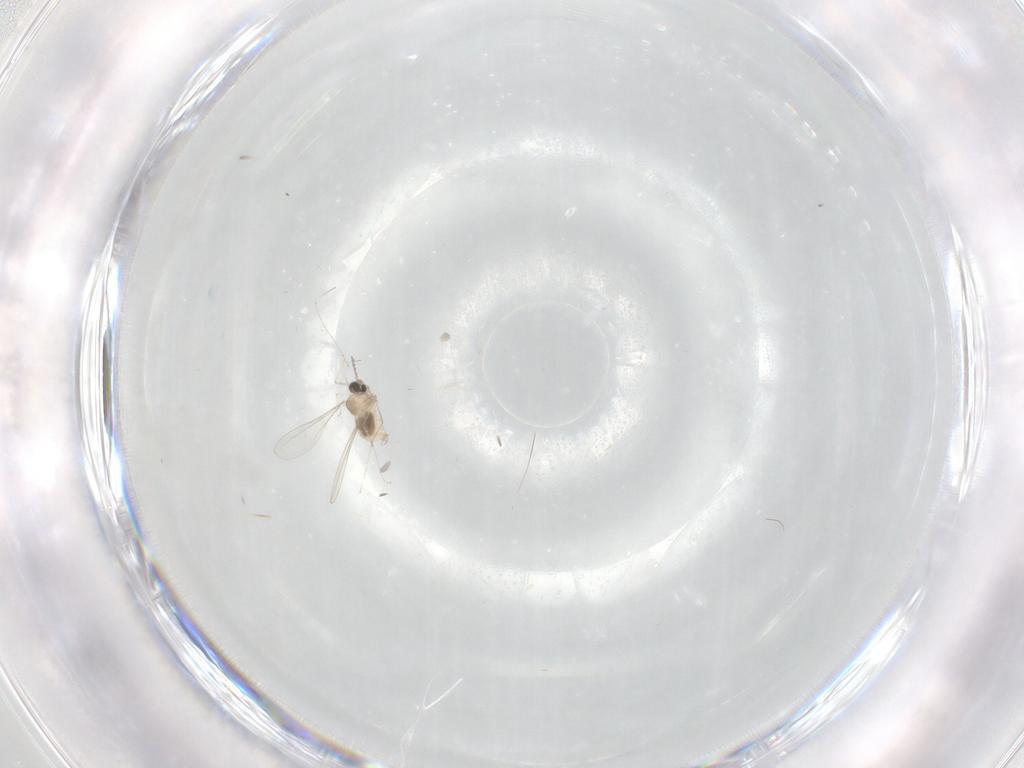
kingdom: Animalia
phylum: Arthropoda
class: Insecta
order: Diptera
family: Cecidomyiidae
